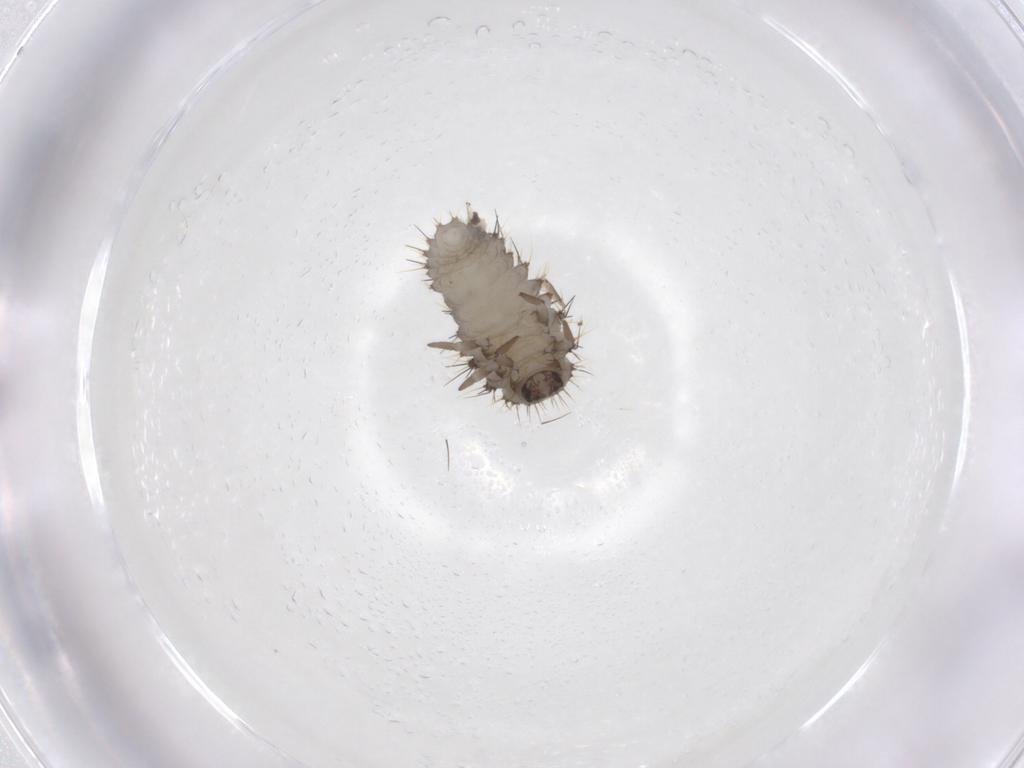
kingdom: Animalia
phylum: Arthropoda
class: Insecta
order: Coleoptera
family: Coccinellidae
